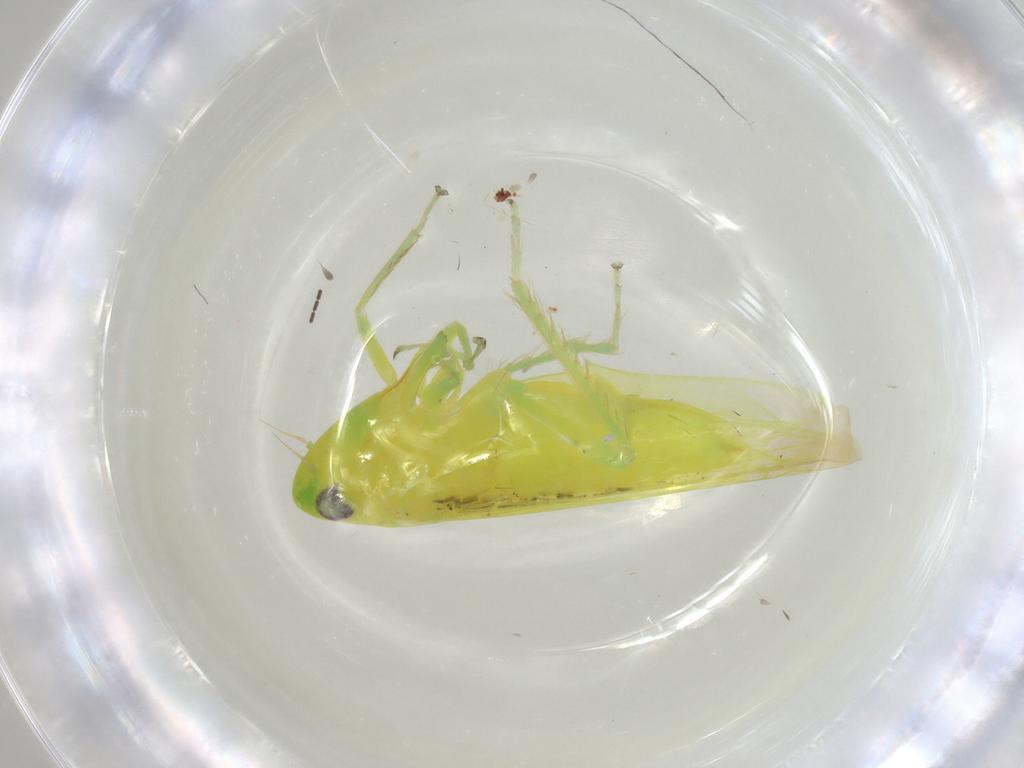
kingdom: Animalia
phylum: Arthropoda
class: Insecta
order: Hemiptera
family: Cicadellidae
